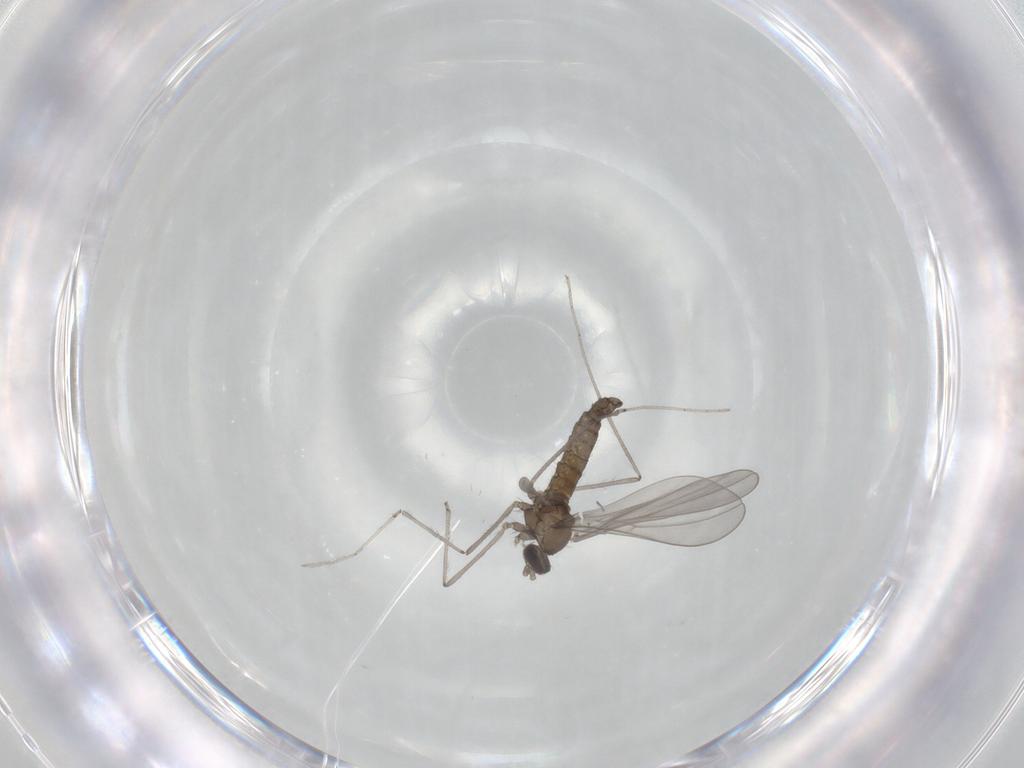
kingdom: Animalia
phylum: Arthropoda
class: Insecta
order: Diptera
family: Cecidomyiidae
